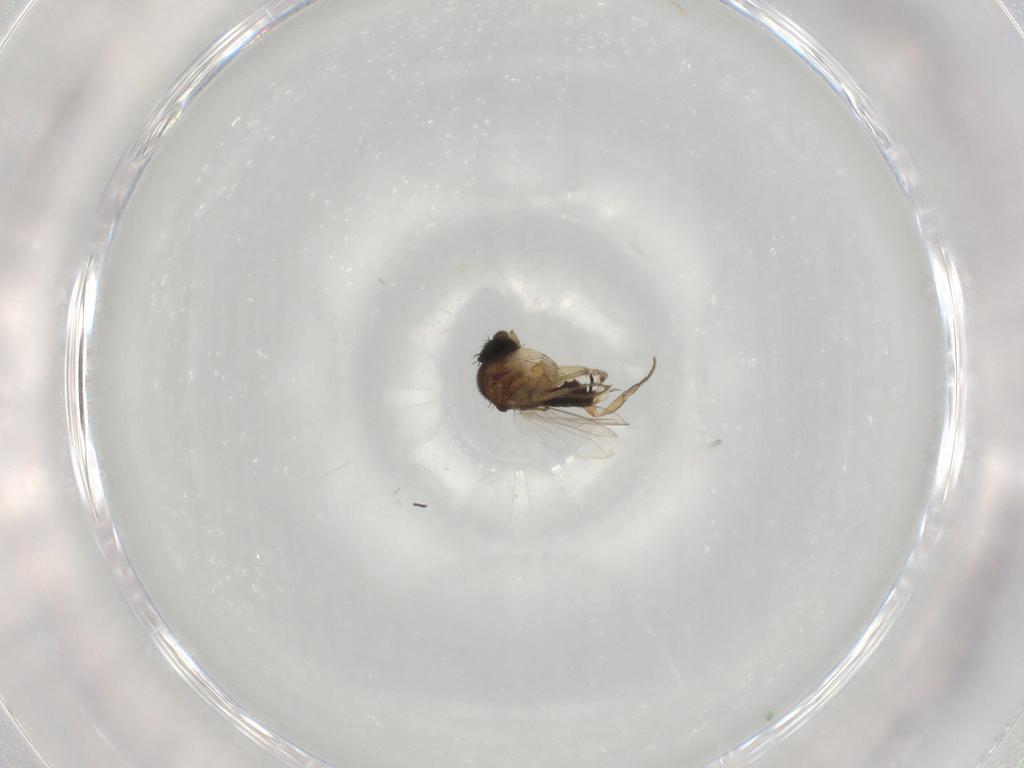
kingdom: Animalia
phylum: Arthropoda
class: Insecta
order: Diptera
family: Phoridae
